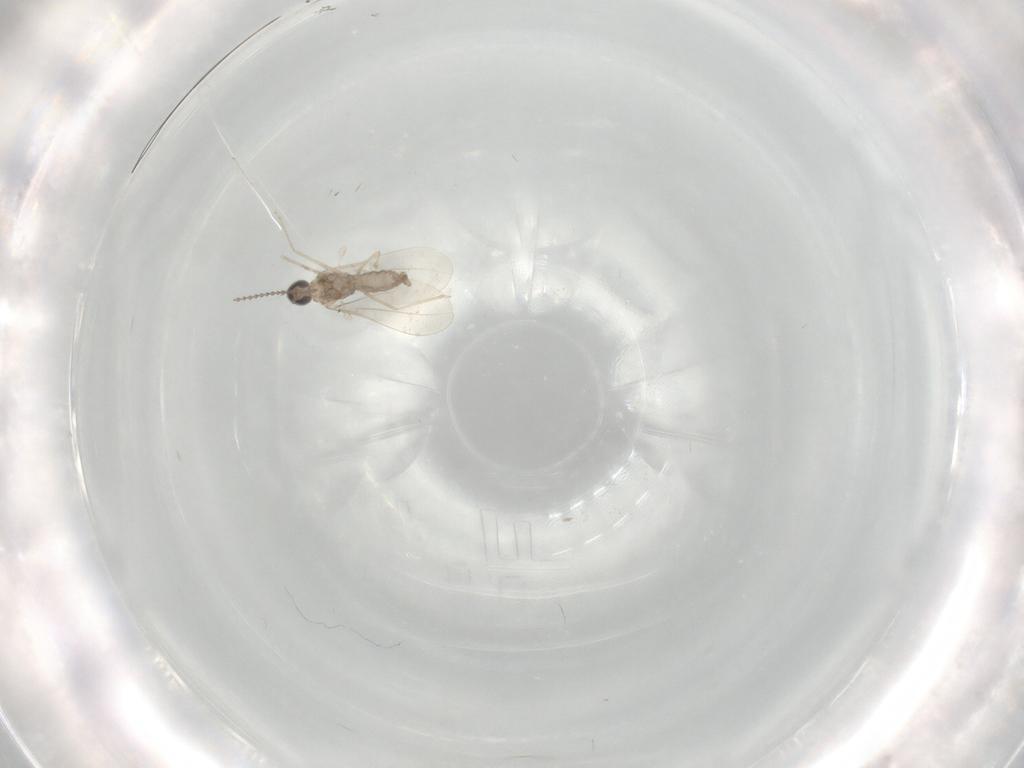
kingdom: Animalia
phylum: Arthropoda
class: Insecta
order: Diptera
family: Cecidomyiidae
